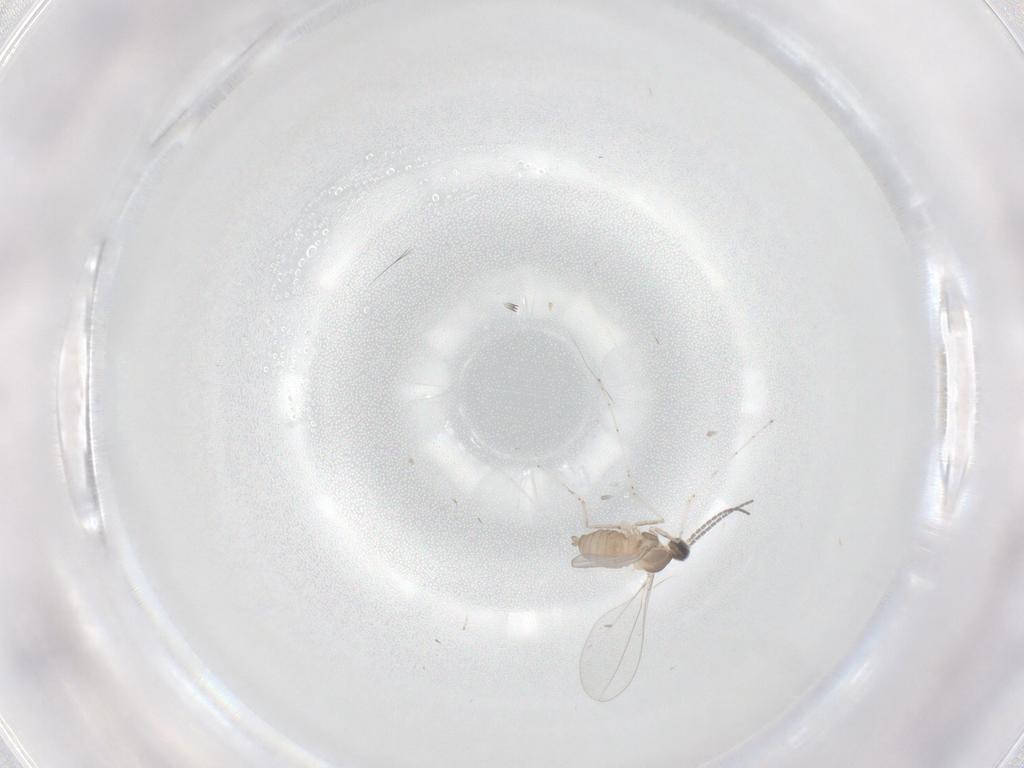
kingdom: Animalia
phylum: Arthropoda
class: Insecta
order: Diptera
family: Cecidomyiidae
